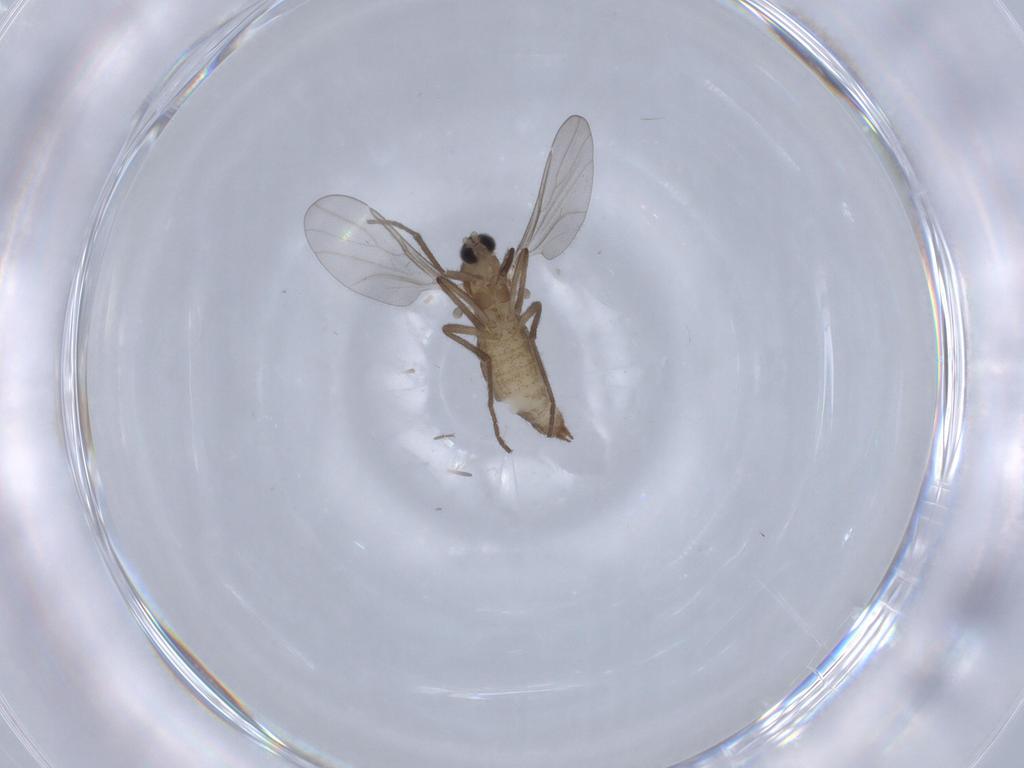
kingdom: Animalia
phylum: Arthropoda
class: Insecta
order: Diptera
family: Cecidomyiidae
